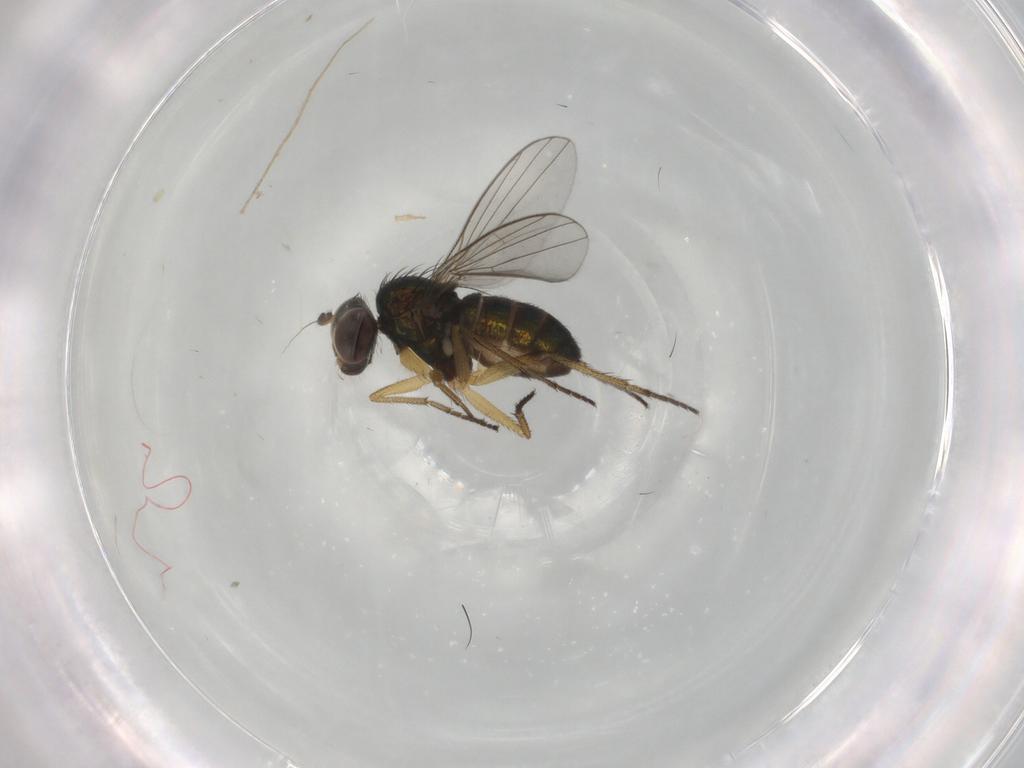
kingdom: Animalia
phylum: Arthropoda
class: Insecta
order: Diptera
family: Dolichopodidae
